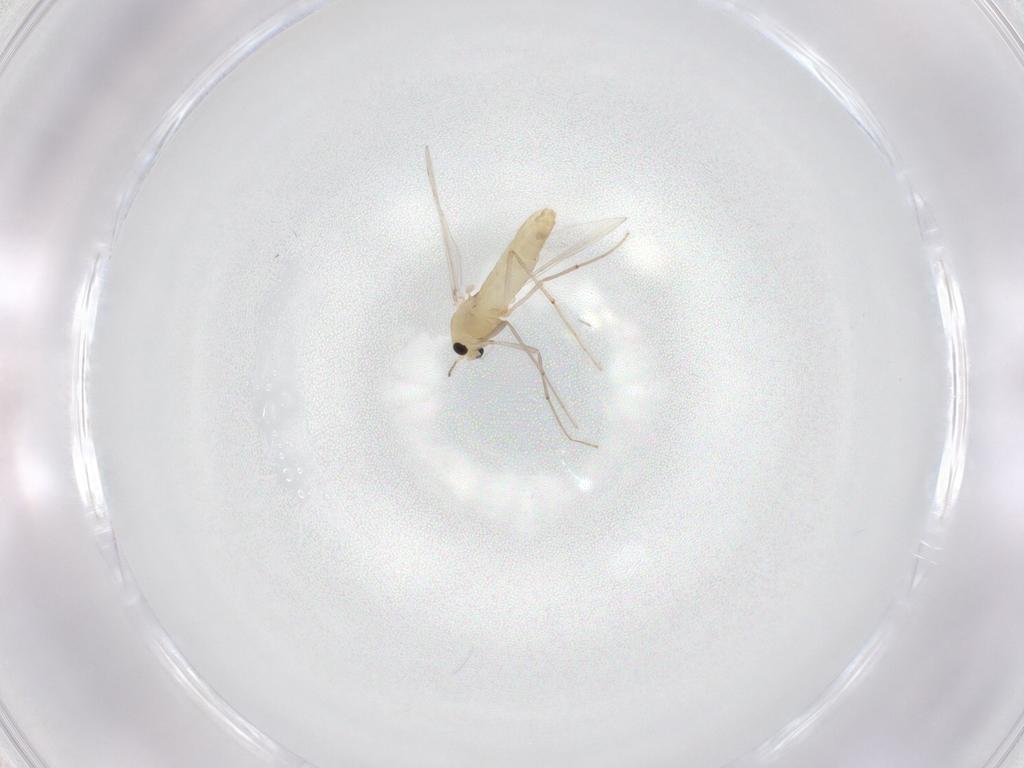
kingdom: Animalia
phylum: Arthropoda
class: Insecta
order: Diptera
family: Chironomidae
